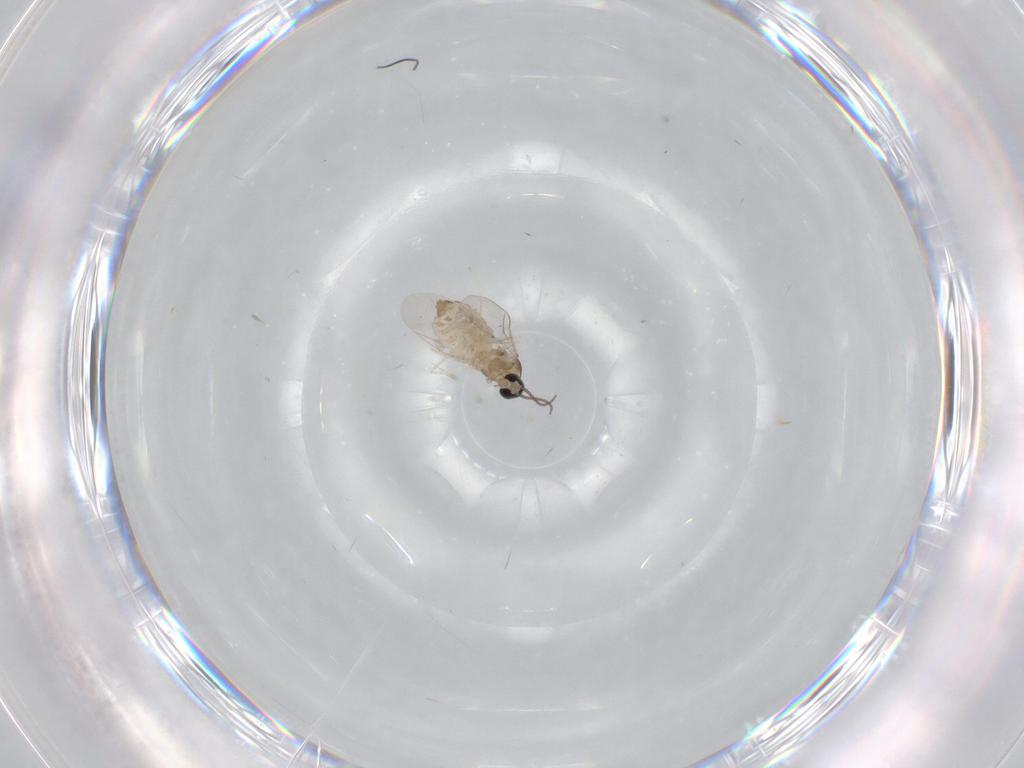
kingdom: Animalia
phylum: Arthropoda
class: Insecta
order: Diptera
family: Cecidomyiidae
